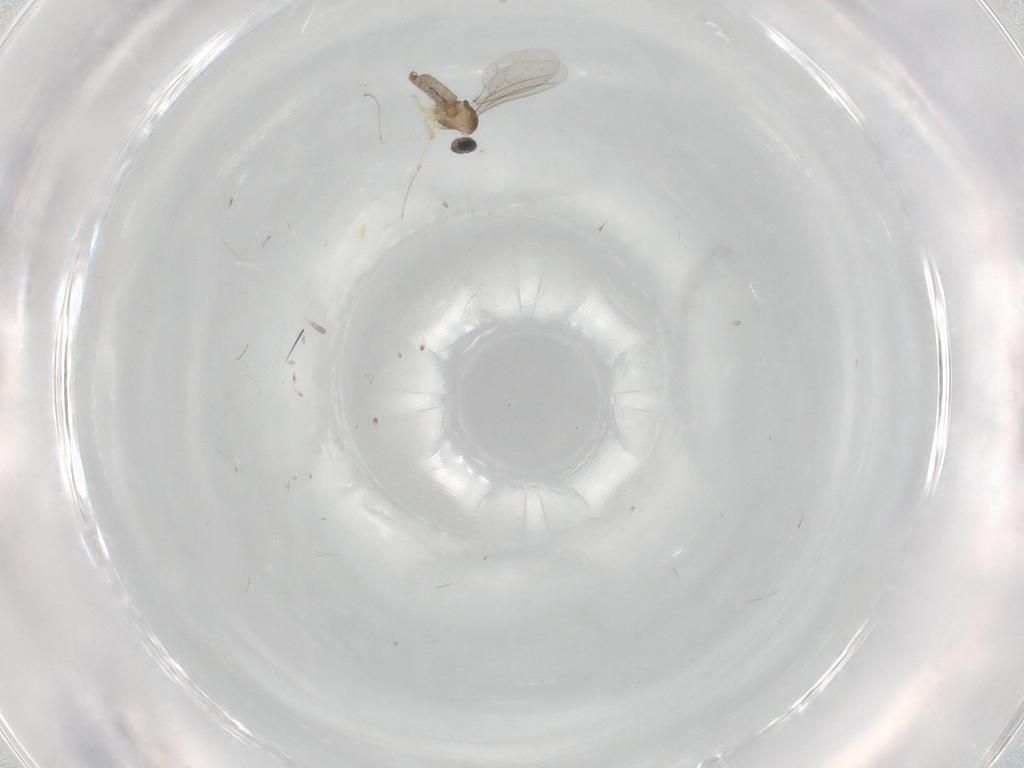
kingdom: Animalia
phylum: Arthropoda
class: Insecta
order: Diptera
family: Cecidomyiidae
